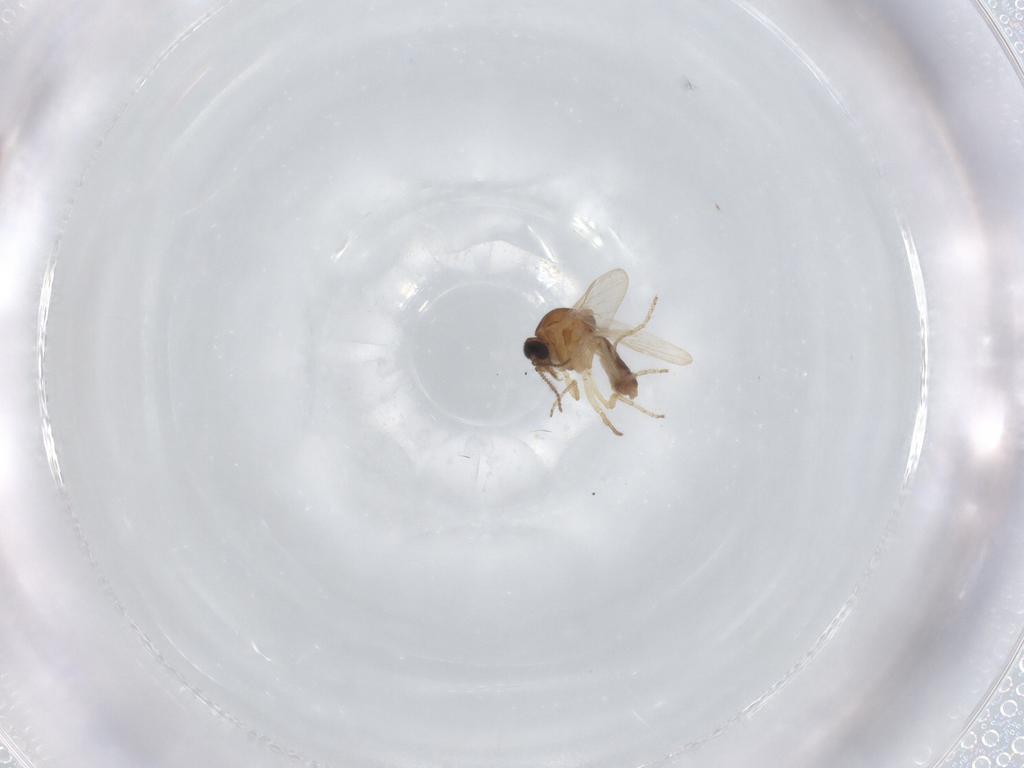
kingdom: Animalia
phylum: Arthropoda
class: Insecta
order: Diptera
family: Ceratopogonidae
